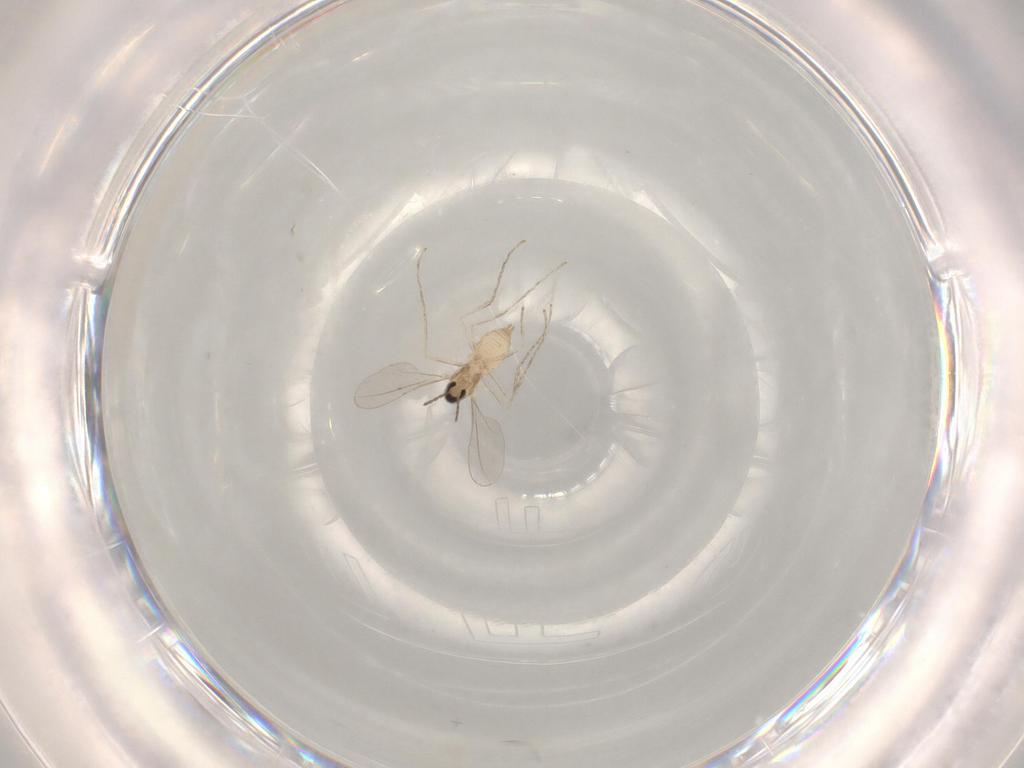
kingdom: Animalia
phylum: Arthropoda
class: Insecta
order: Diptera
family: Cecidomyiidae
